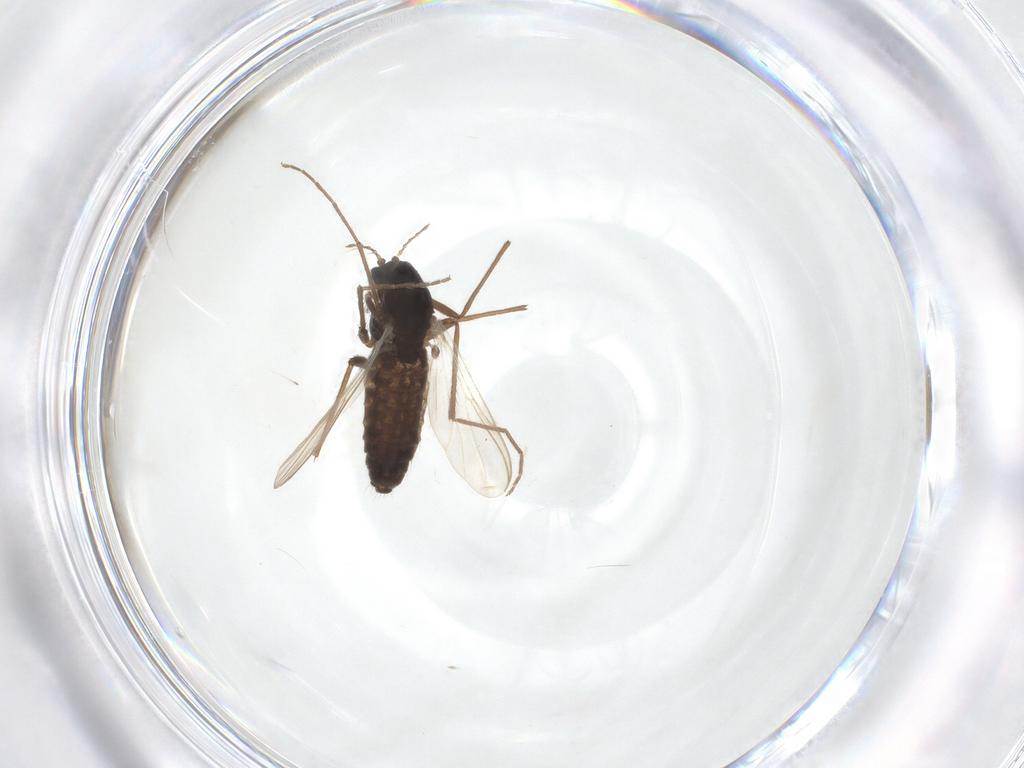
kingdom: Animalia
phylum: Arthropoda
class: Insecta
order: Diptera
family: Chironomidae
